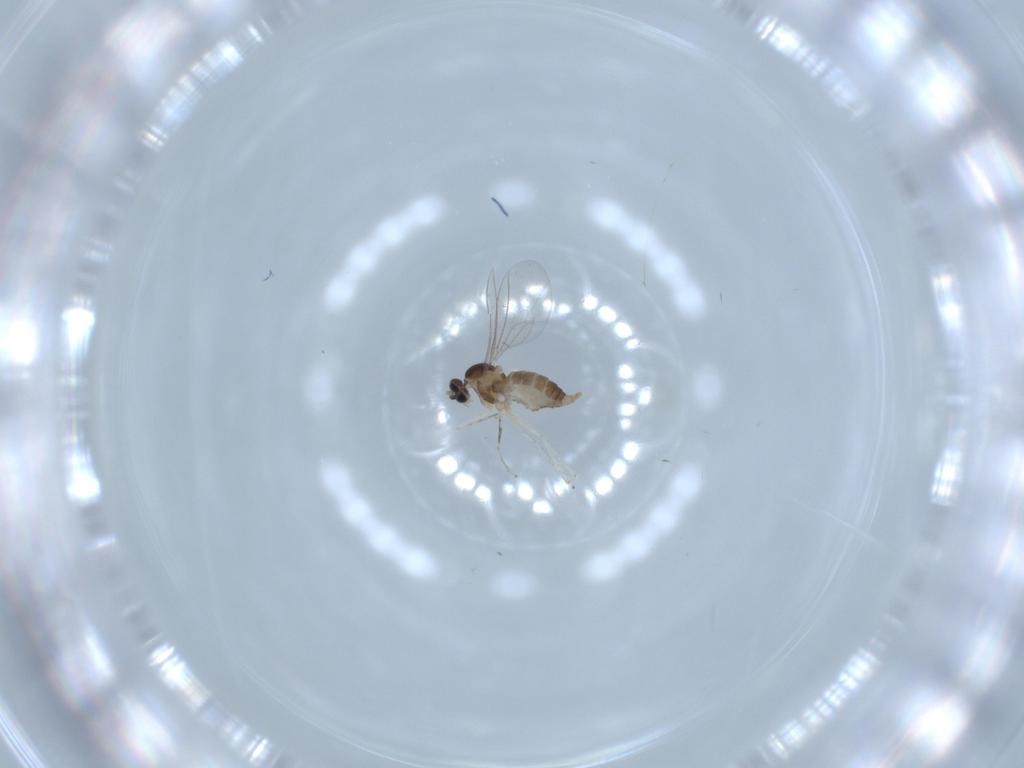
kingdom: Animalia
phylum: Arthropoda
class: Insecta
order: Diptera
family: Cecidomyiidae
